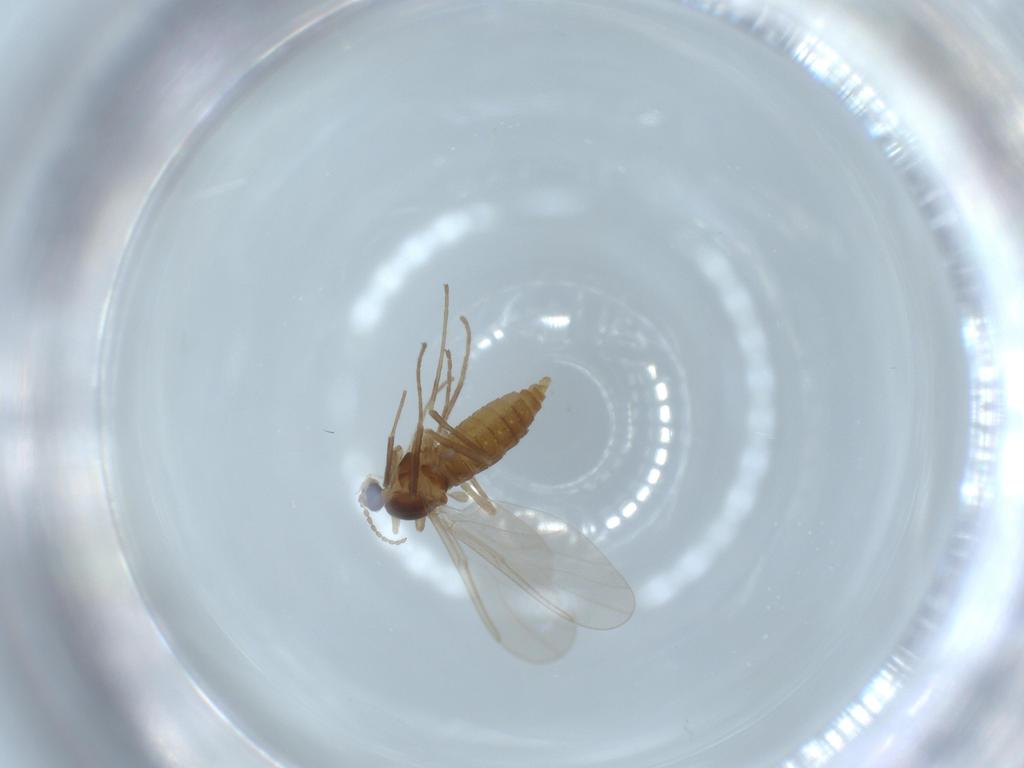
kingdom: Animalia
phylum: Arthropoda
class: Insecta
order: Diptera
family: Cecidomyiidae
